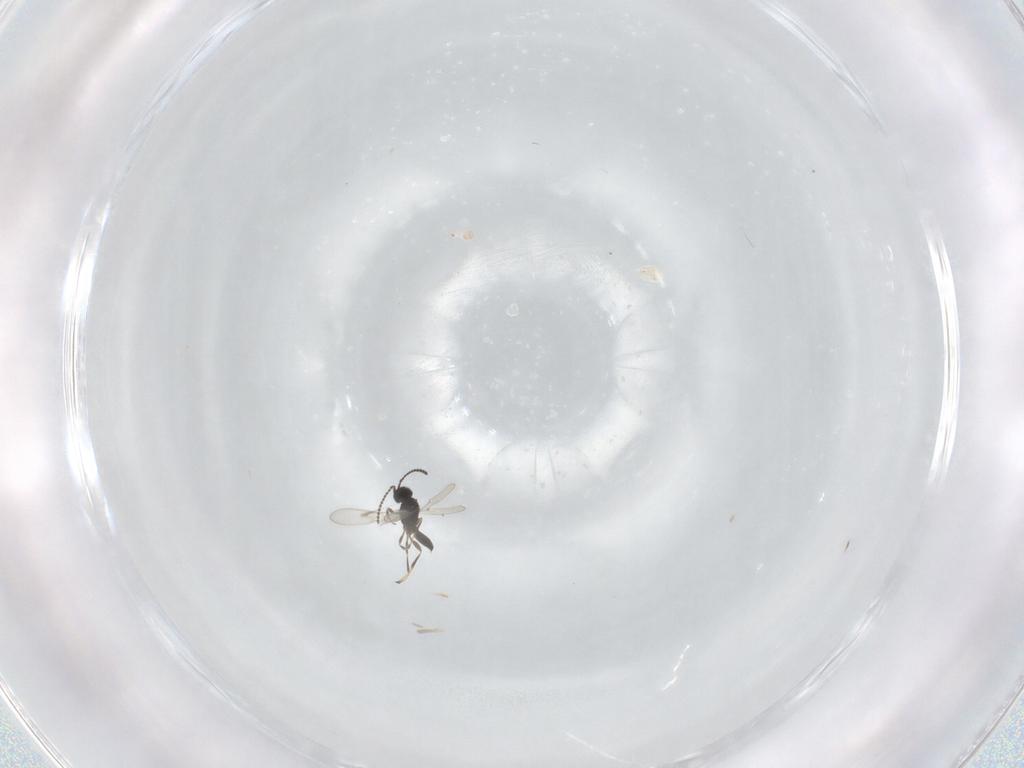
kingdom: Animalia
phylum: Arthropoda
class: Insecta
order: Hymenoptera
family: Scelionidae
